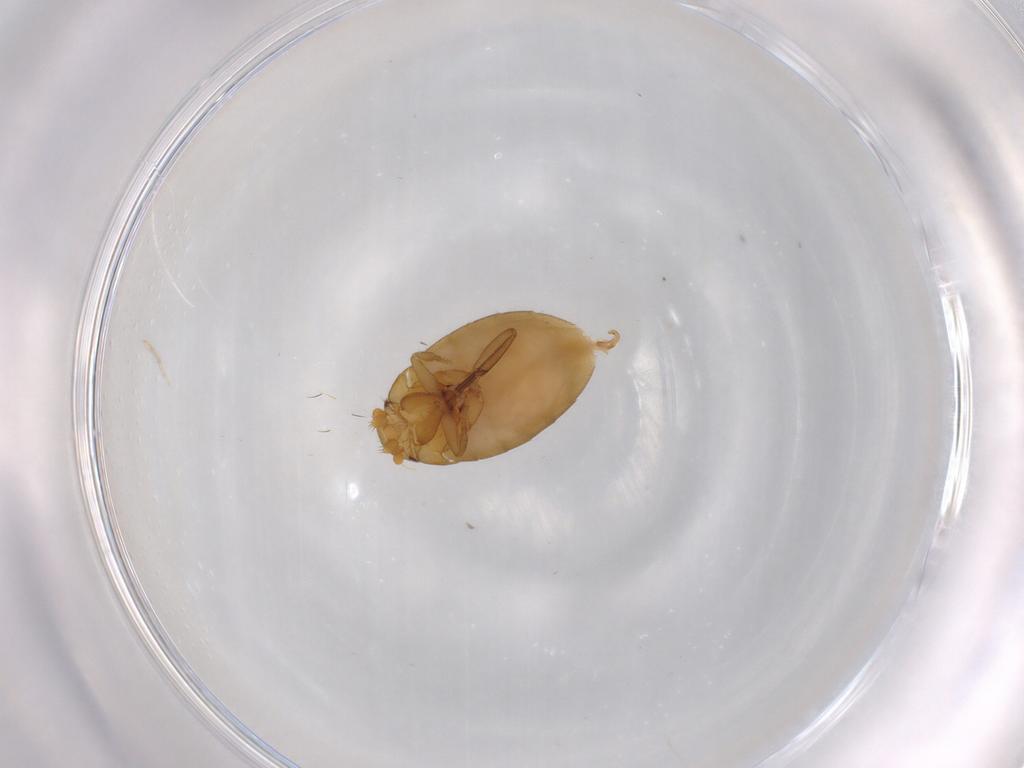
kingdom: Animalia
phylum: Arthropoda
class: Insecta
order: Diptera
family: Phoridae
